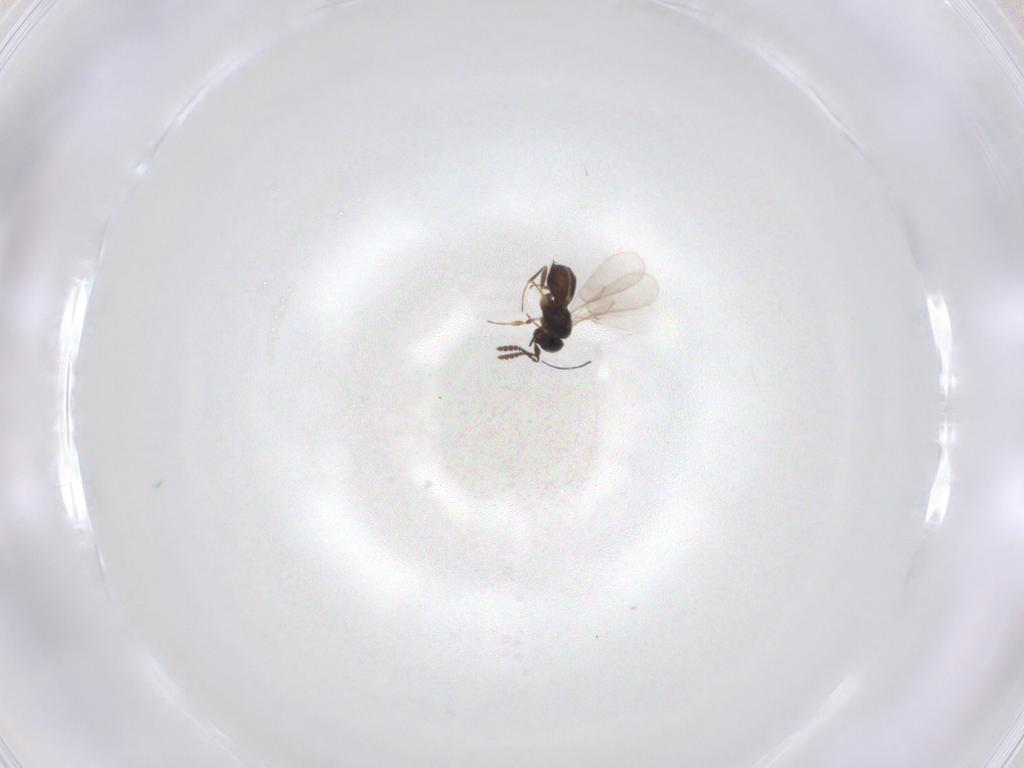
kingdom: Animalia
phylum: Arthropoda
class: Insecta
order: Hymenoptera
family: Scelionidae
